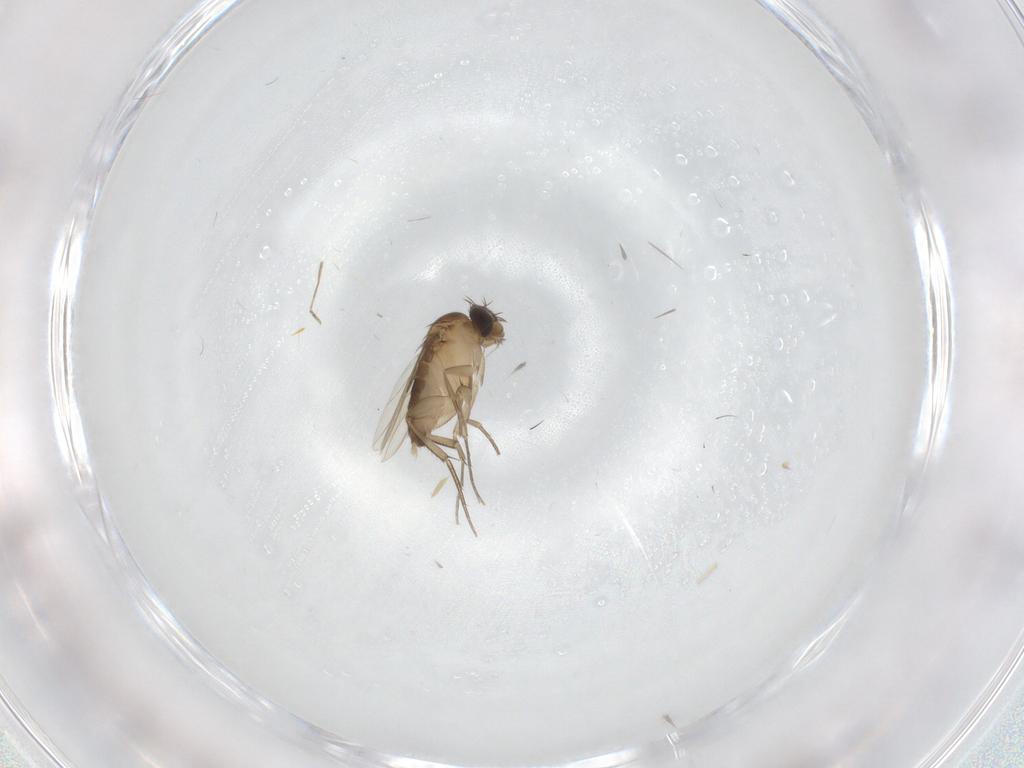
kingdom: Animalia
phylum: Arthropoda
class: Insecta
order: Diptera
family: Phoridae
